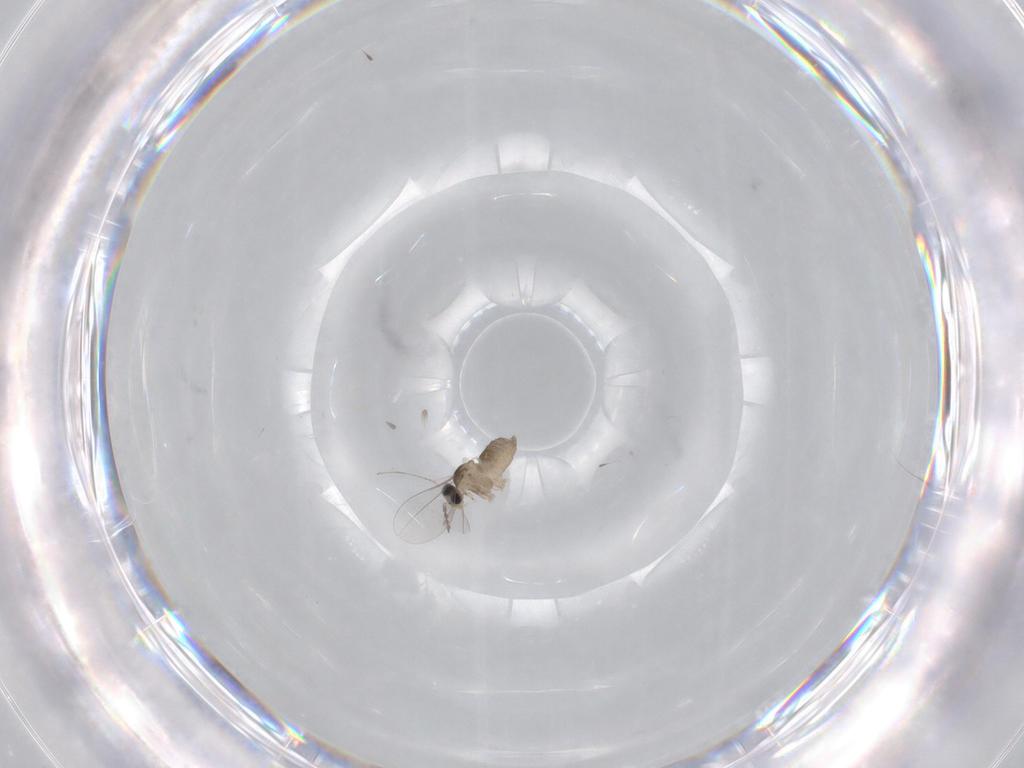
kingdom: Animalia
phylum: Arthropoda
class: Insecta
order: Diptera
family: Cecidomyiidae
